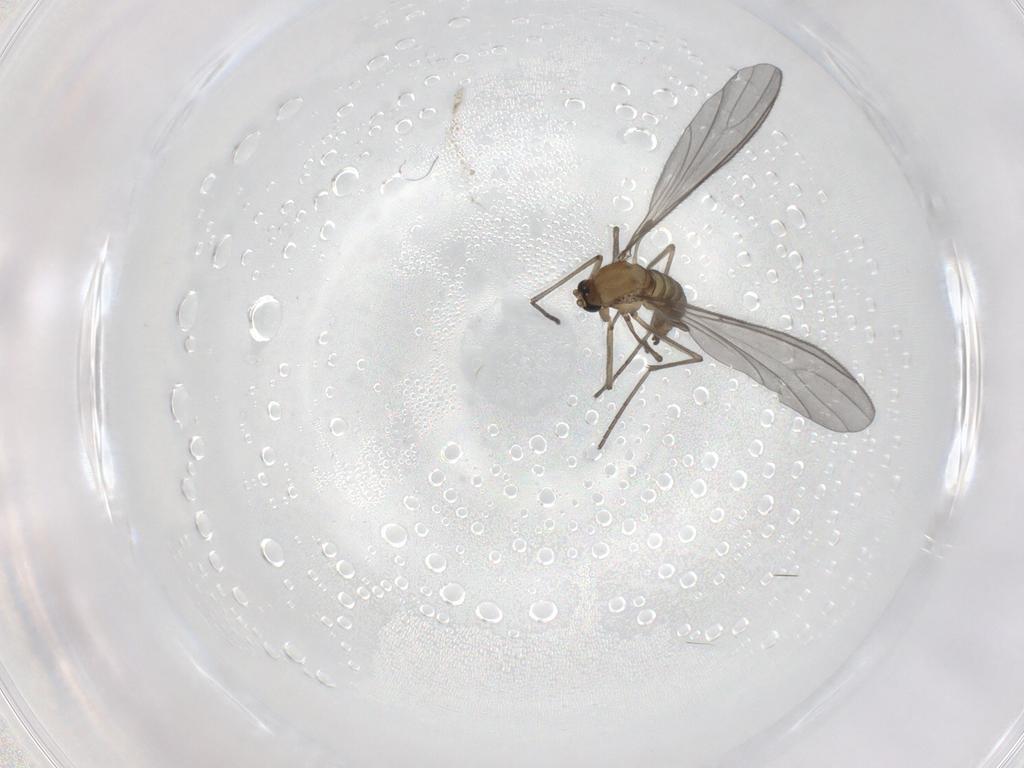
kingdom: Animalia
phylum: Arthropoda
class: Insecta
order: Diptera
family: Sciaridae
